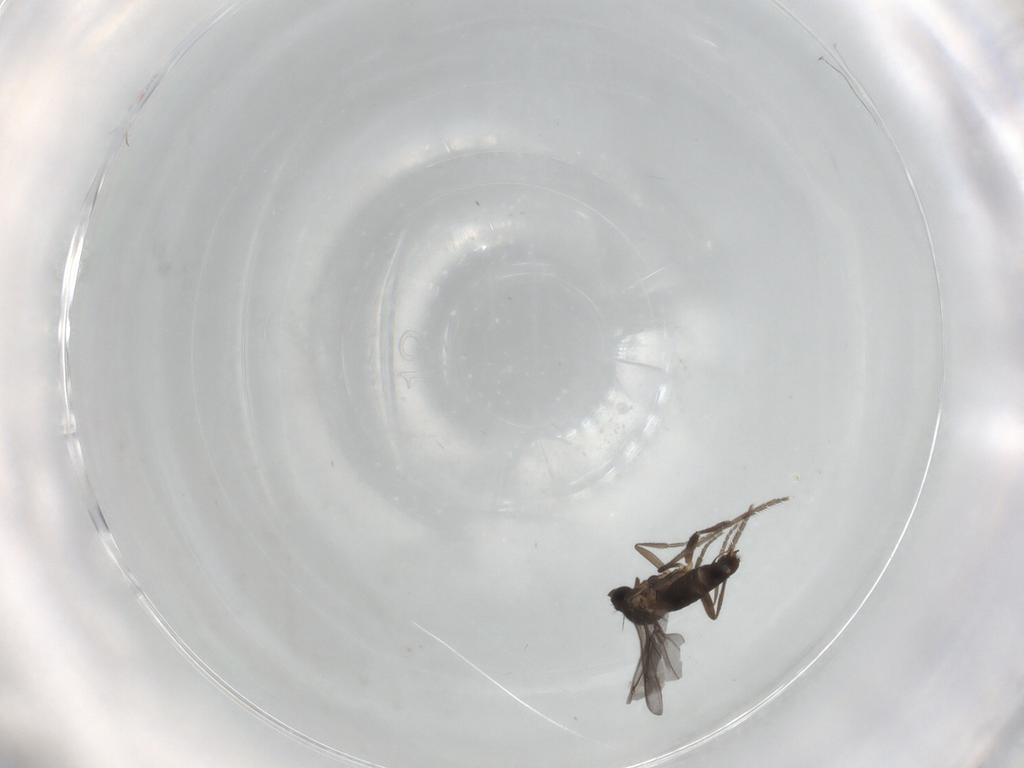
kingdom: Animalia
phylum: Arthropoda
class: Insecta
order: Diptera
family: Phoridae
